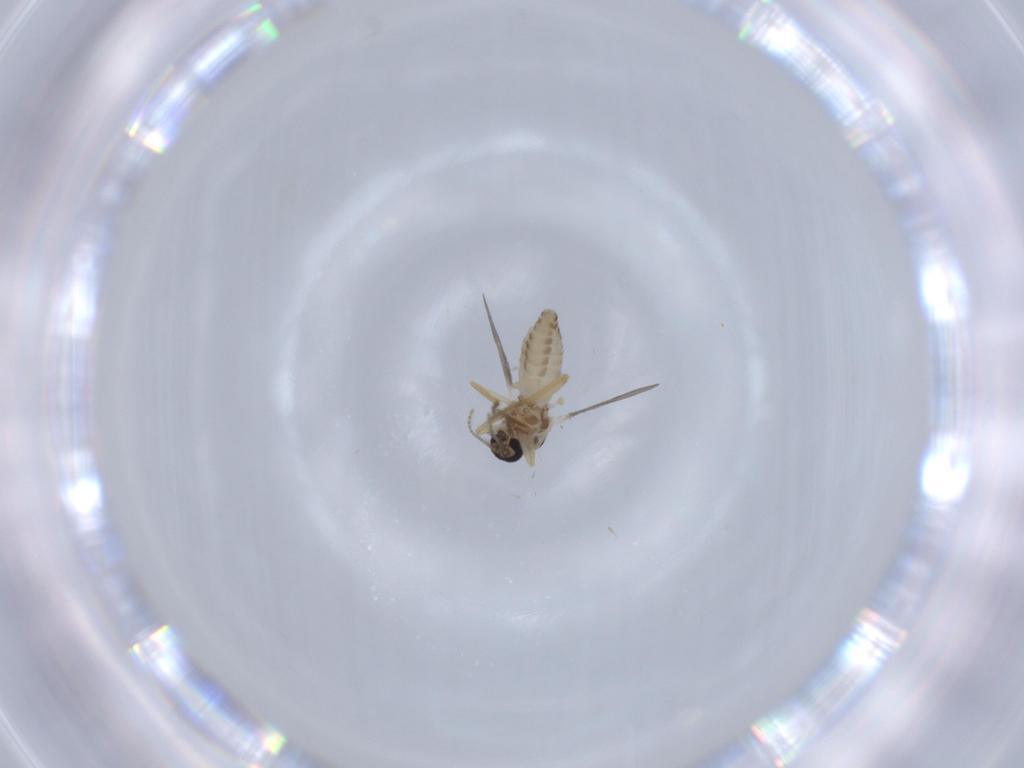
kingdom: Animalia
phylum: Arthropoda
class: Insecta
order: Diptera
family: Ceratopogonidae
